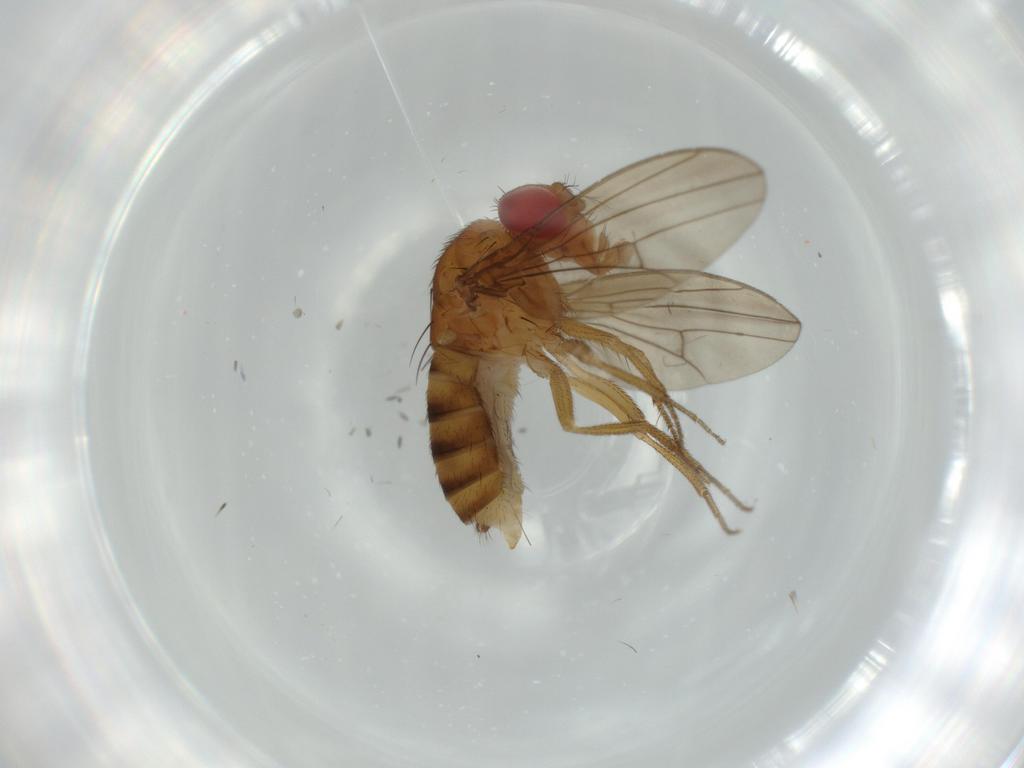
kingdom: Animalia
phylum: Arthropoda
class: Insecta
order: Diptera
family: Drosophilidae
